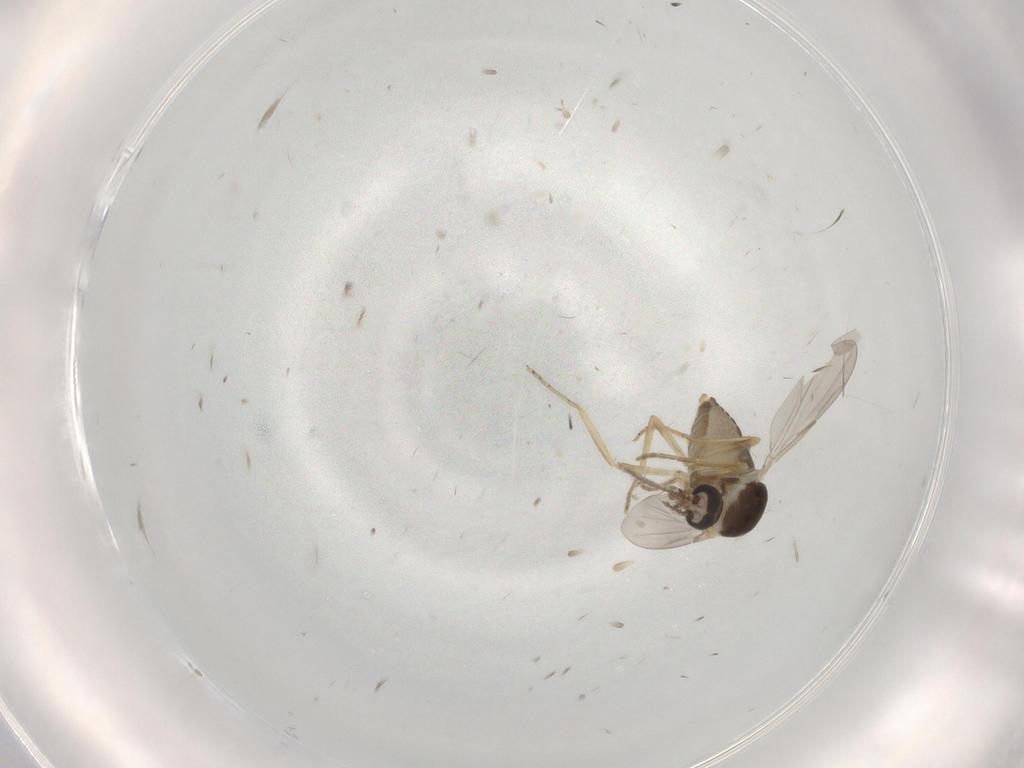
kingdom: Animalia
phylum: Arthropoda
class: Insecta
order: Diptera
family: Ceratopogonidae
